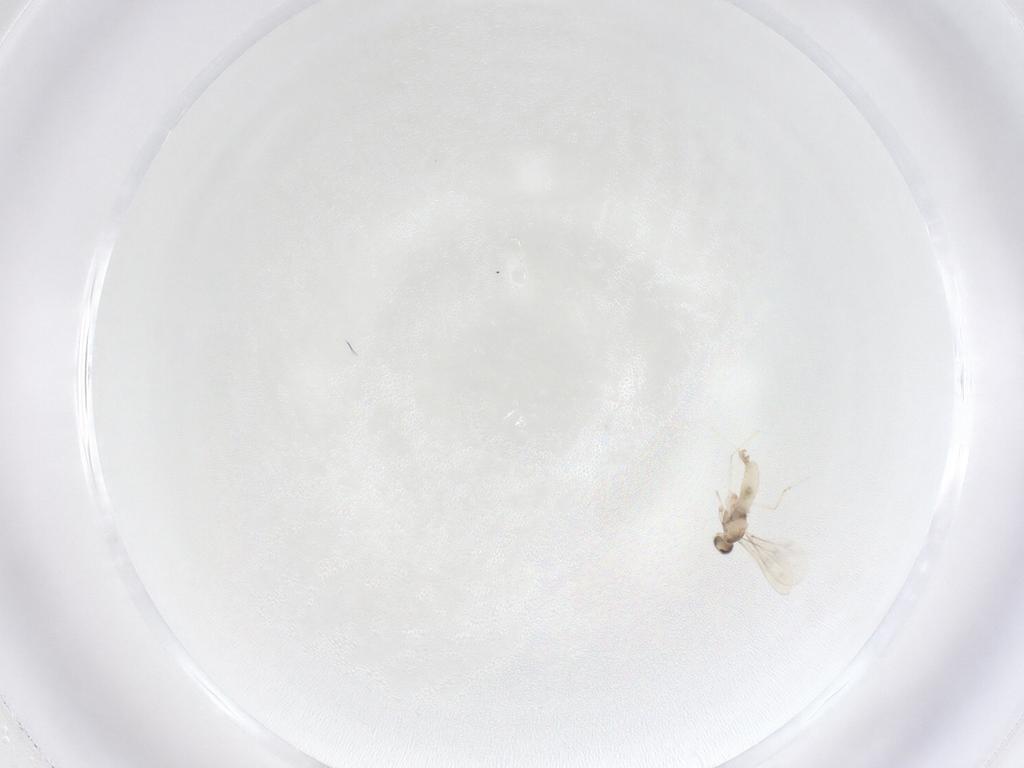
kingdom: Animalia
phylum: Arthropoda
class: Insecta
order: Diptera
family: Cecidomyiidae
